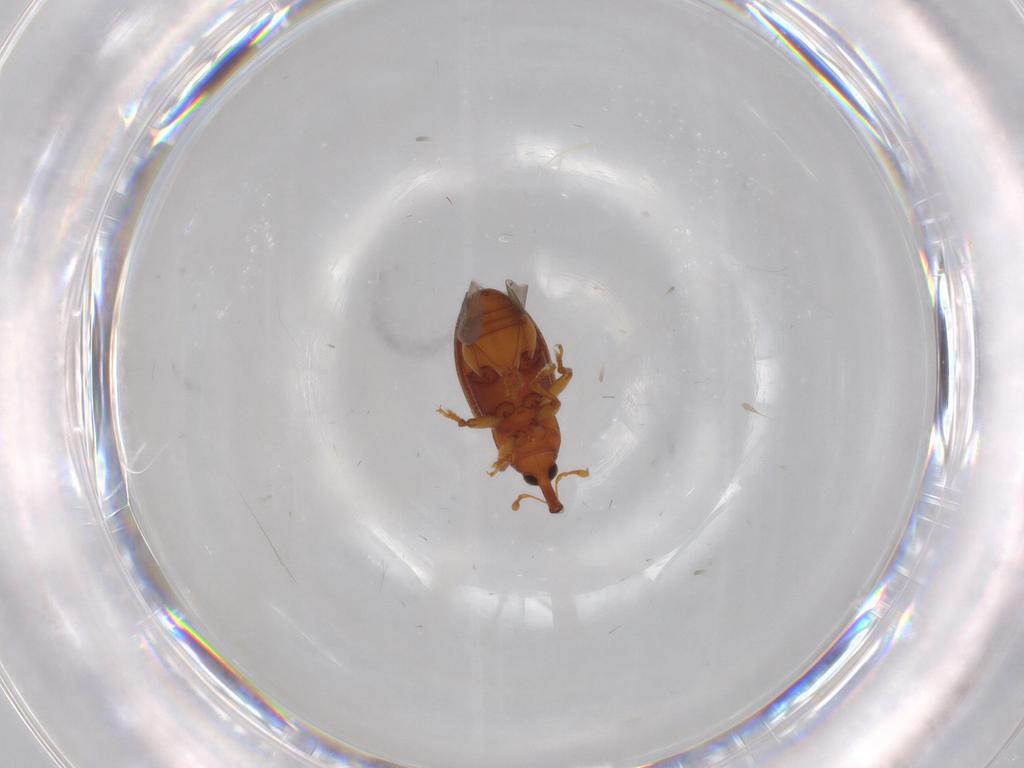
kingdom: Animalia
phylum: Arthropoda
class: Insecta
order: Coleoptera
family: Curculionidae
